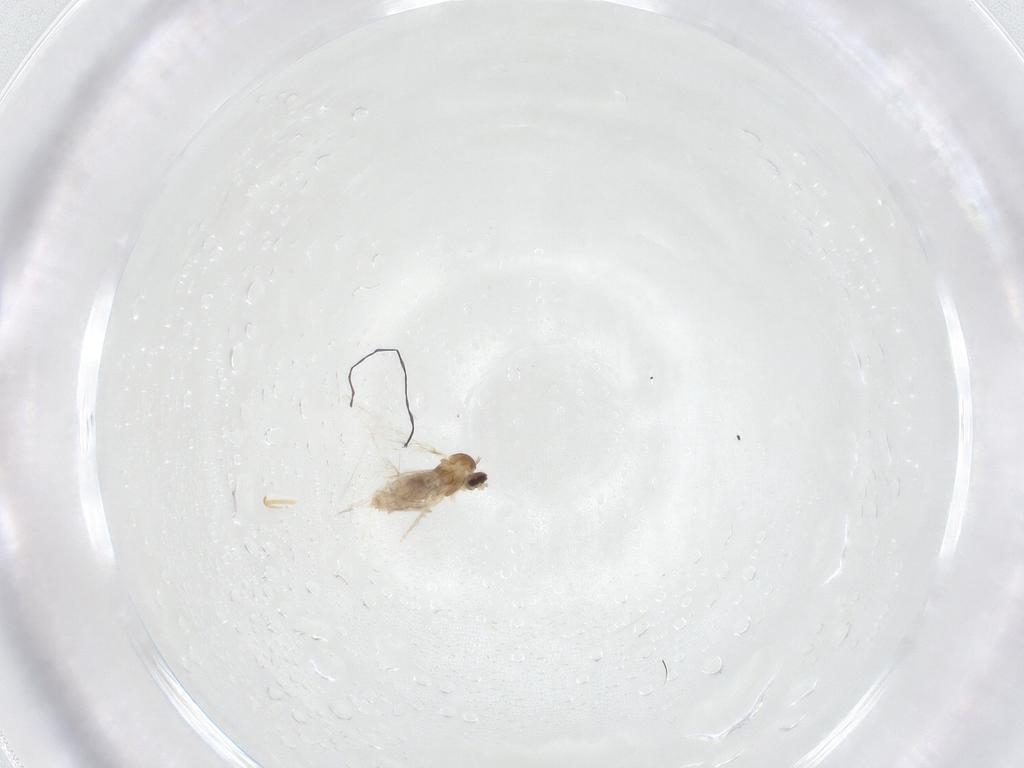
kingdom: Animalia
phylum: Arthropoda
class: Insecta
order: Diptera
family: Cecidomyiidae
